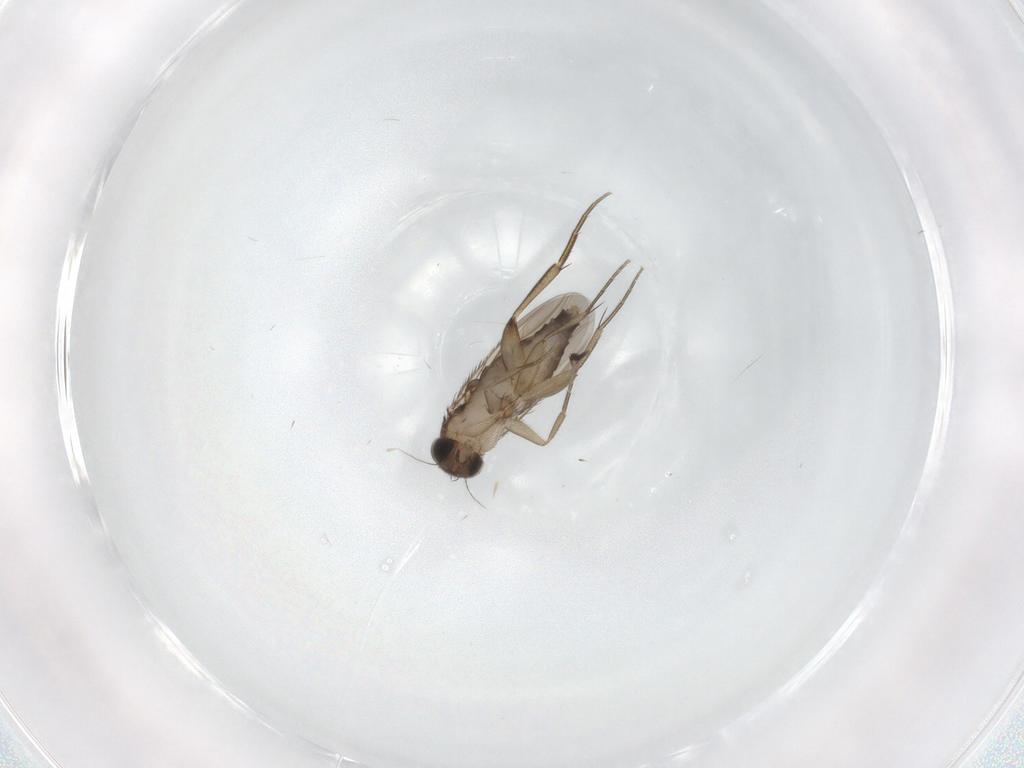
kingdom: Animalia
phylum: Arthropoda
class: Insecta
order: Diptera
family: Phoridae
